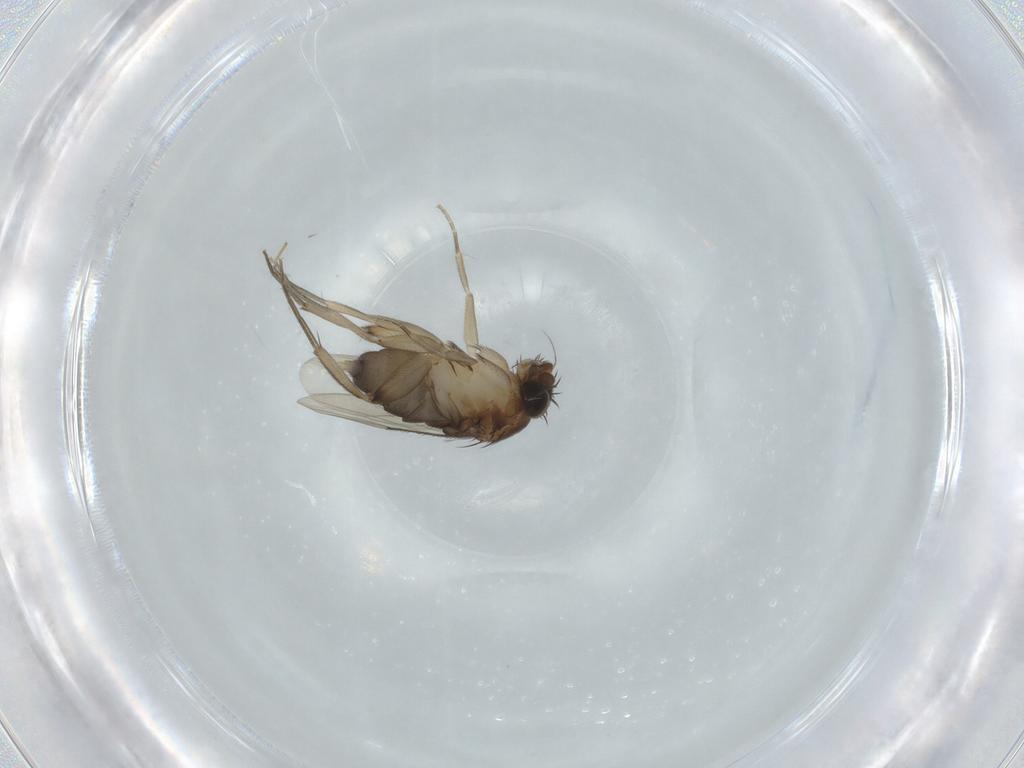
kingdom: Animalia
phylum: Arthropoda
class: Insecta
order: Diptera
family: Phoridae
